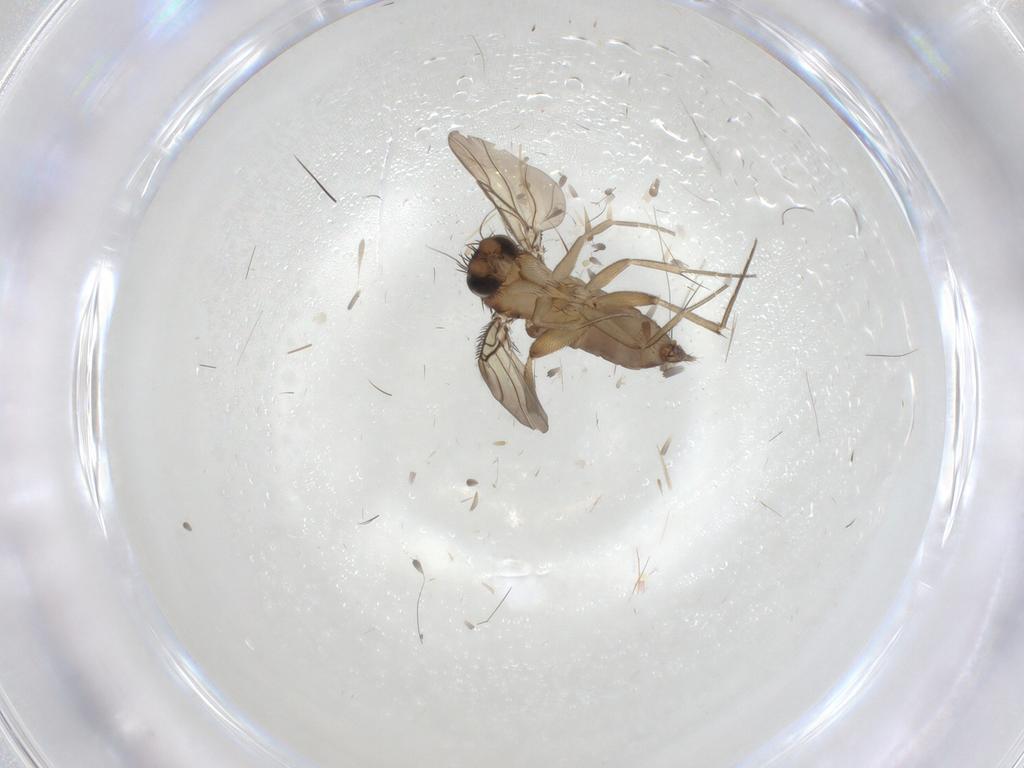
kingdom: Animalia
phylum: Arthropoda
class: Insecta
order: Diptera
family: Phoridae
